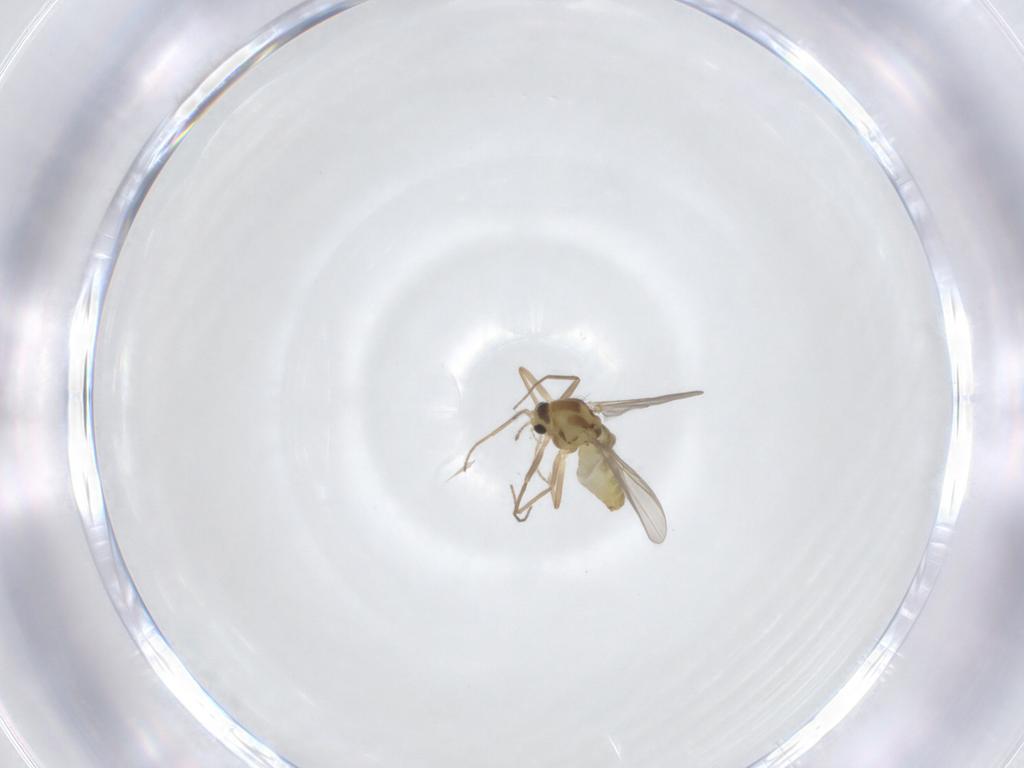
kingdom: Animalia
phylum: Arthropoda
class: Insecta
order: Diptera
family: Chironomidae
